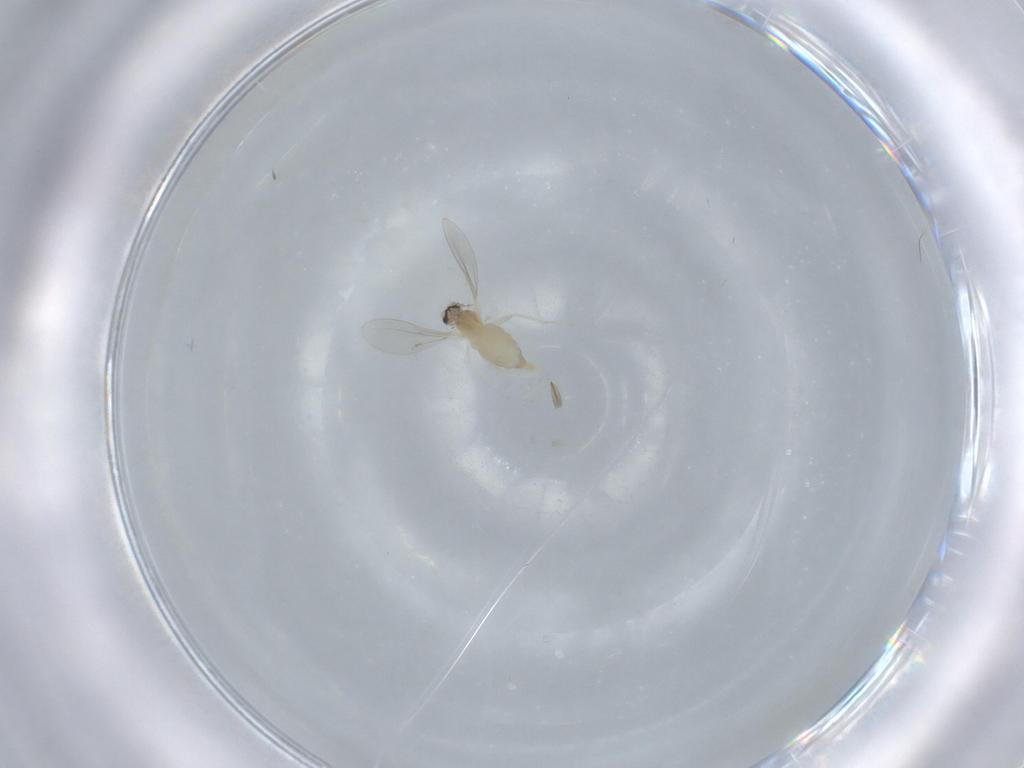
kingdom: Animalia
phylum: Arthropoda
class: Insecta
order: Diptera
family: Cecidomyiidae
